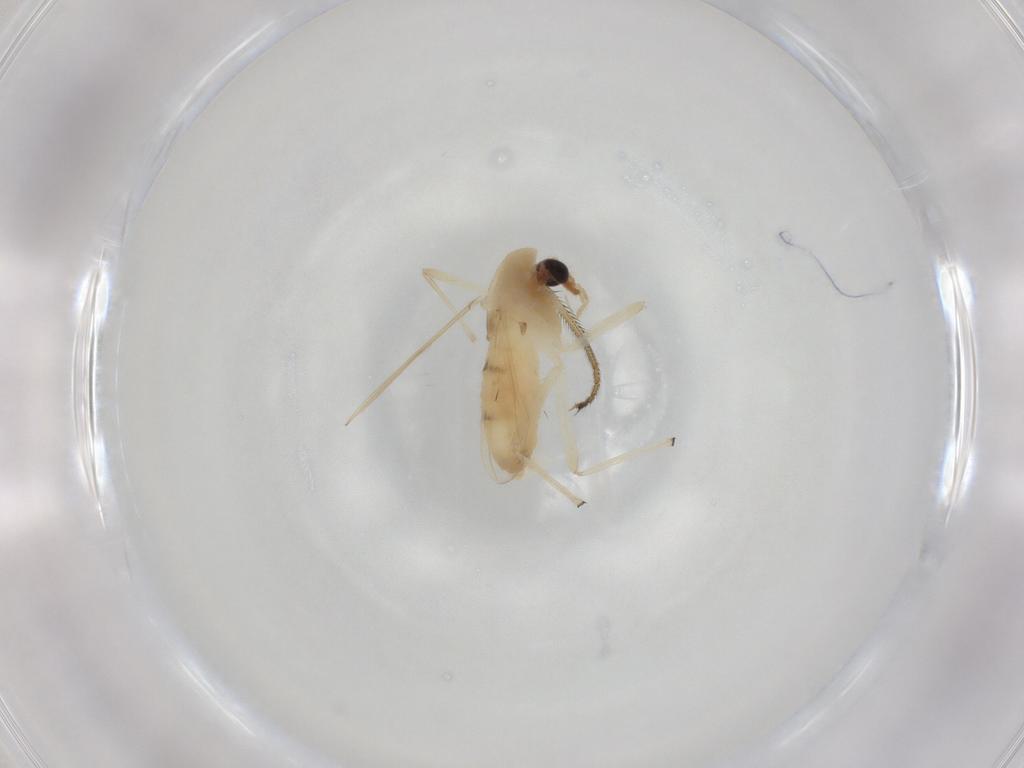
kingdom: Animalia
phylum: Arthropoda
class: Insecta
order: Diptera
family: Chironomidae
